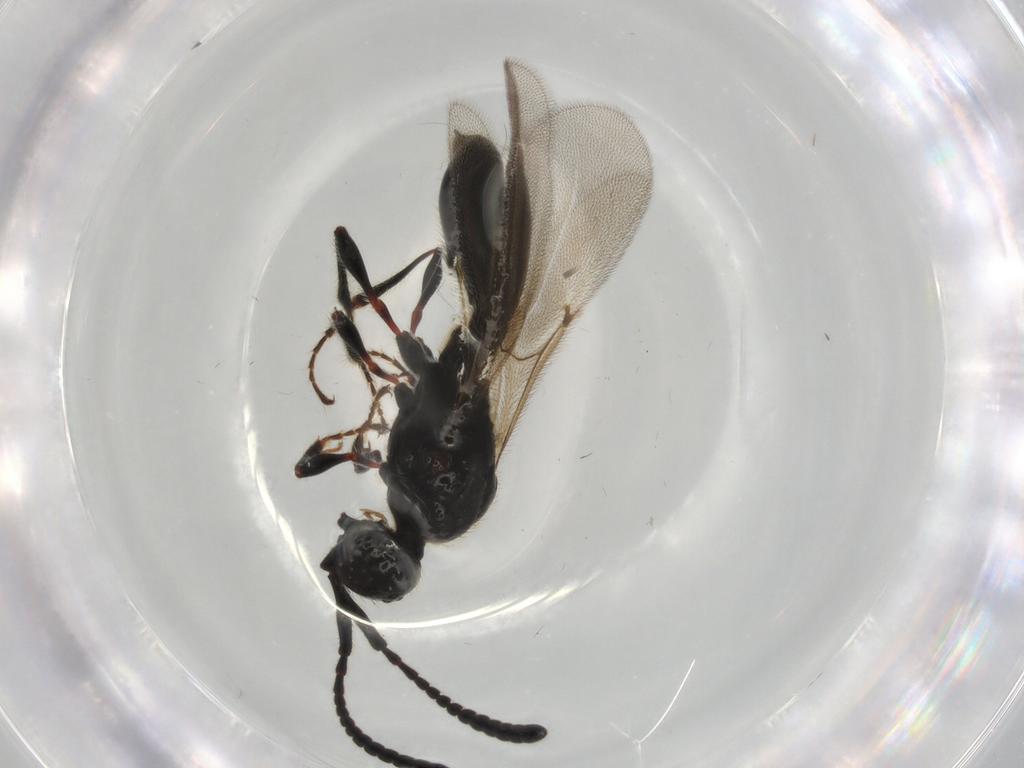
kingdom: Animalia
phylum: Arthropoda
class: Insecta
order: Hymenoptera
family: Diapriidae
